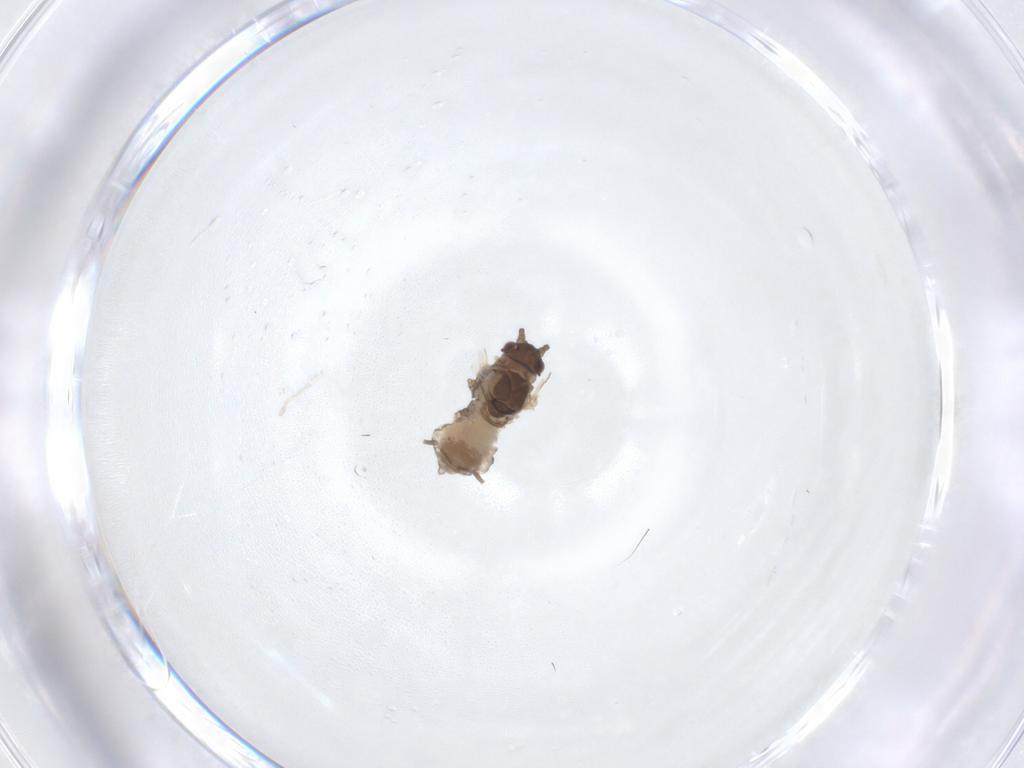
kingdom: Animalia
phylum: Arthropoda
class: Insecta
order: Hemiptera
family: Aphididae
